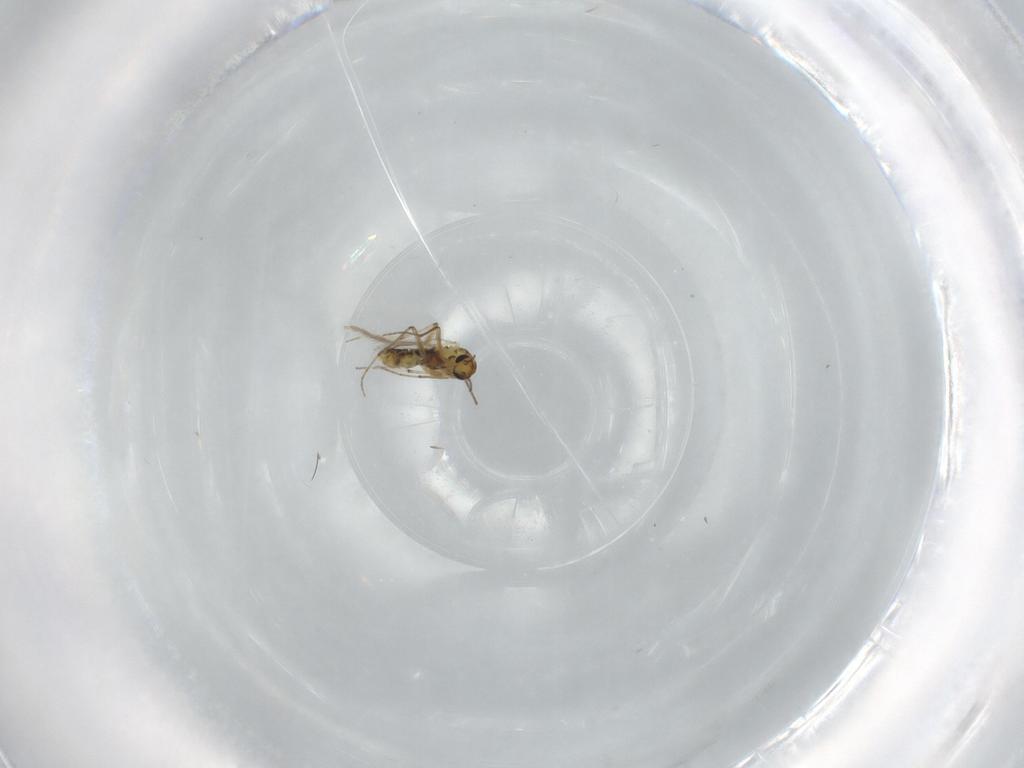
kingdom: Animalia
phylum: Arthropoda
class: Insecta
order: Diptera
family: Chironomidae
